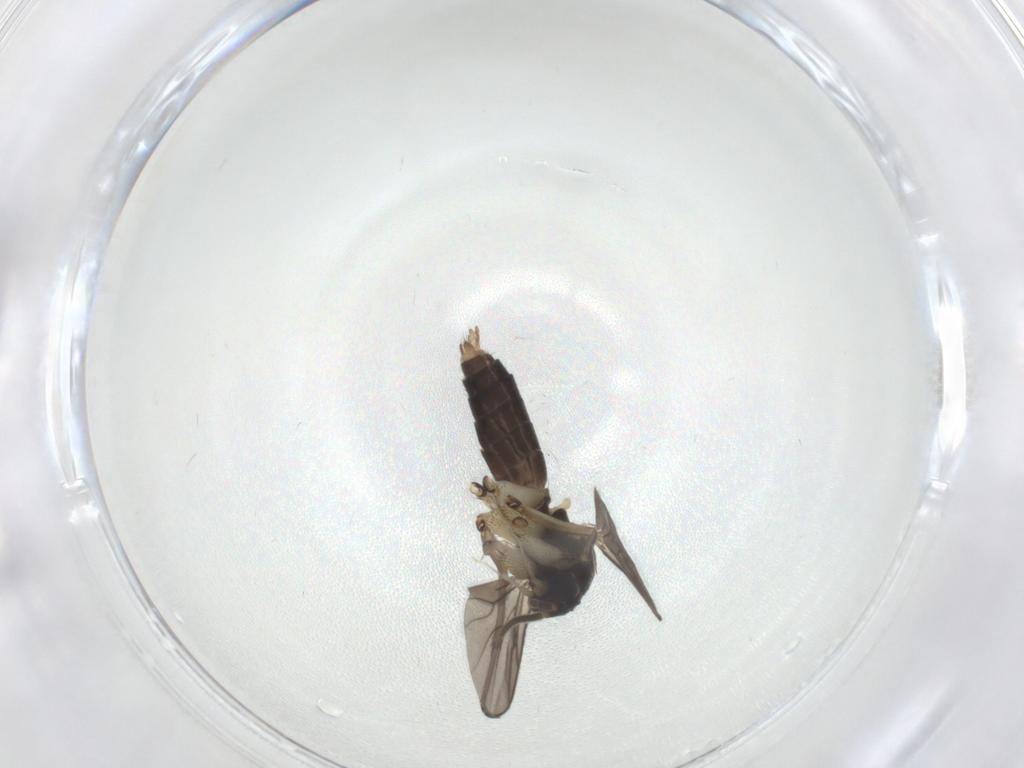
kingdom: Animalia
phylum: Arthropoda
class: Insecta
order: Diptera
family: Mycetophilidae
